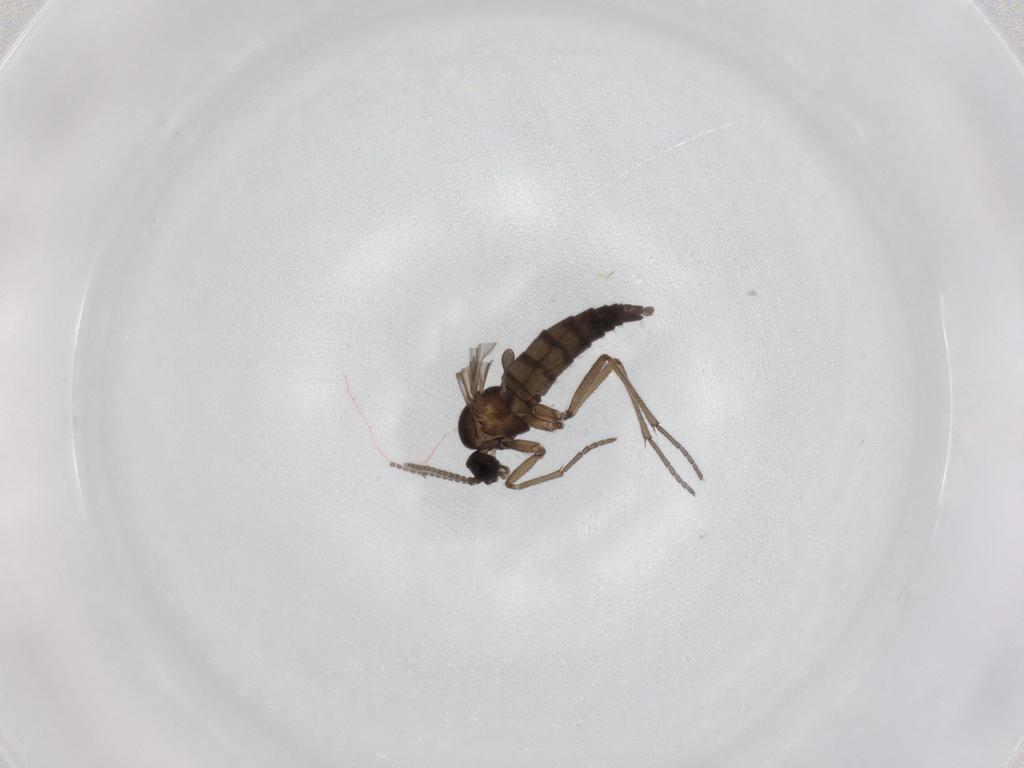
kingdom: Animalia
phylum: Arthropoda
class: Insecta
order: Diptera
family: Sciaridae
